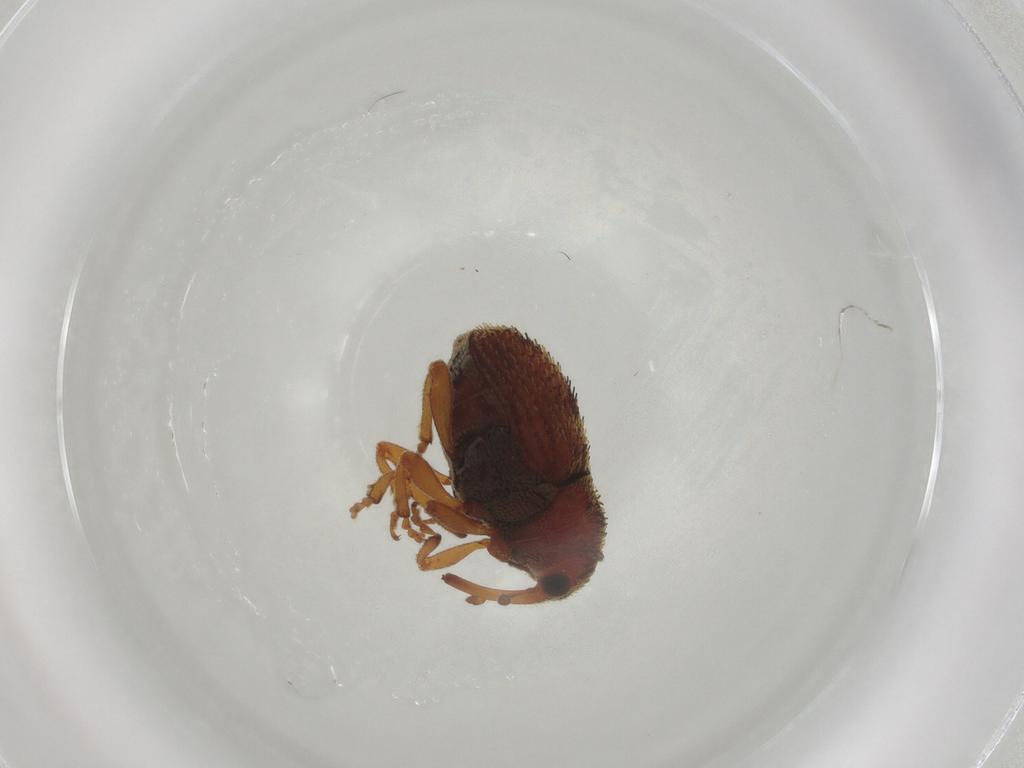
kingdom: Animalia
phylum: Arthropoda
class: Insecta
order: Coleoptera
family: Curculionidae
